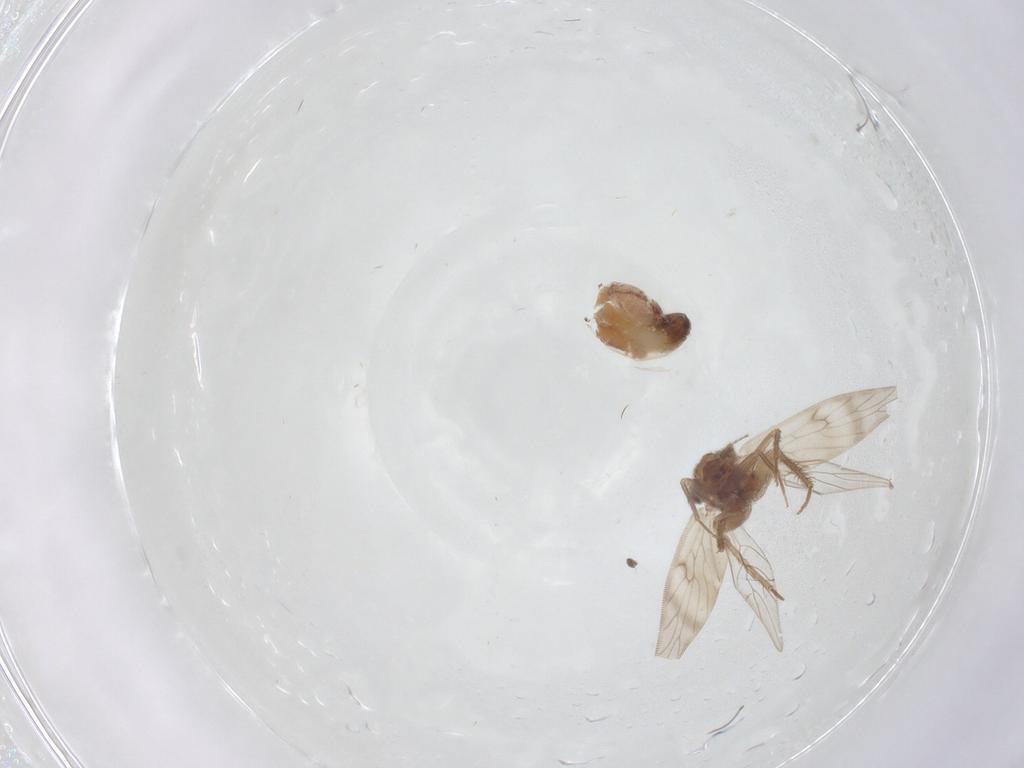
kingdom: Animalia
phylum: Arthropoda
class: Insecta
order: Psocodea
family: Lepidopsocidae
